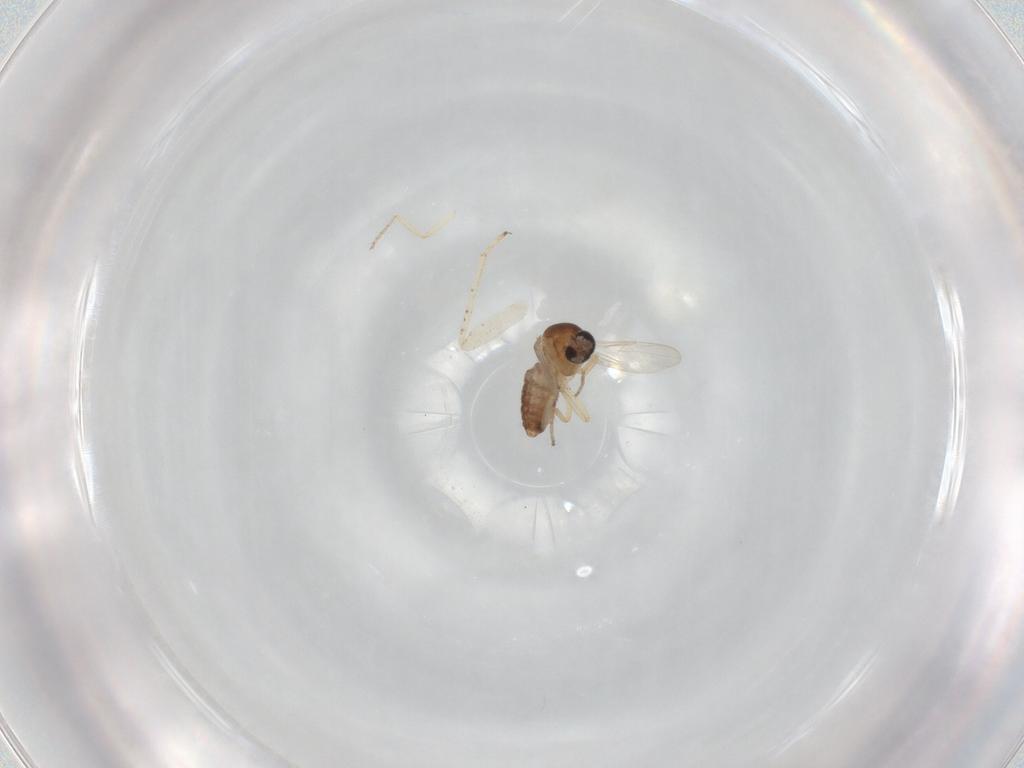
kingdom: Animalia
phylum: Arthropoda
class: Insecta
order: Diptera
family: Ceratopogonidae
